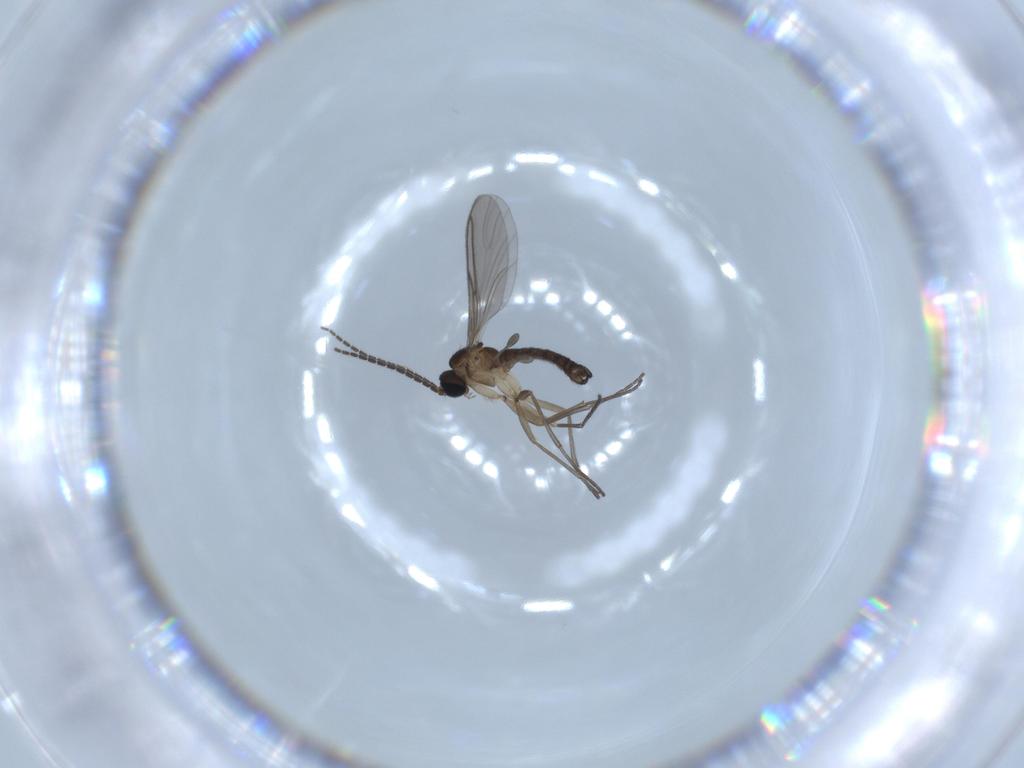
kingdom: Animalia
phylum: Arthropoda
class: Insecta
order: Diptera
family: Sciaridae
